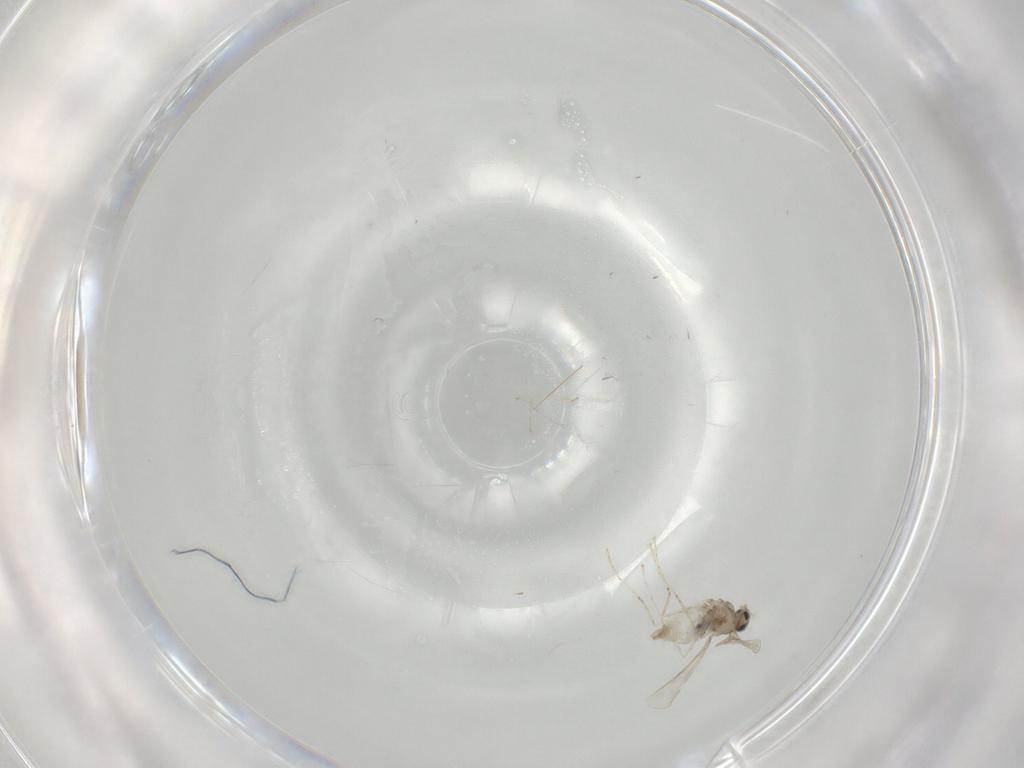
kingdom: Animalia
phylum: Arthropoda
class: Insecta
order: Diptera
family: Cecidomyiidae
